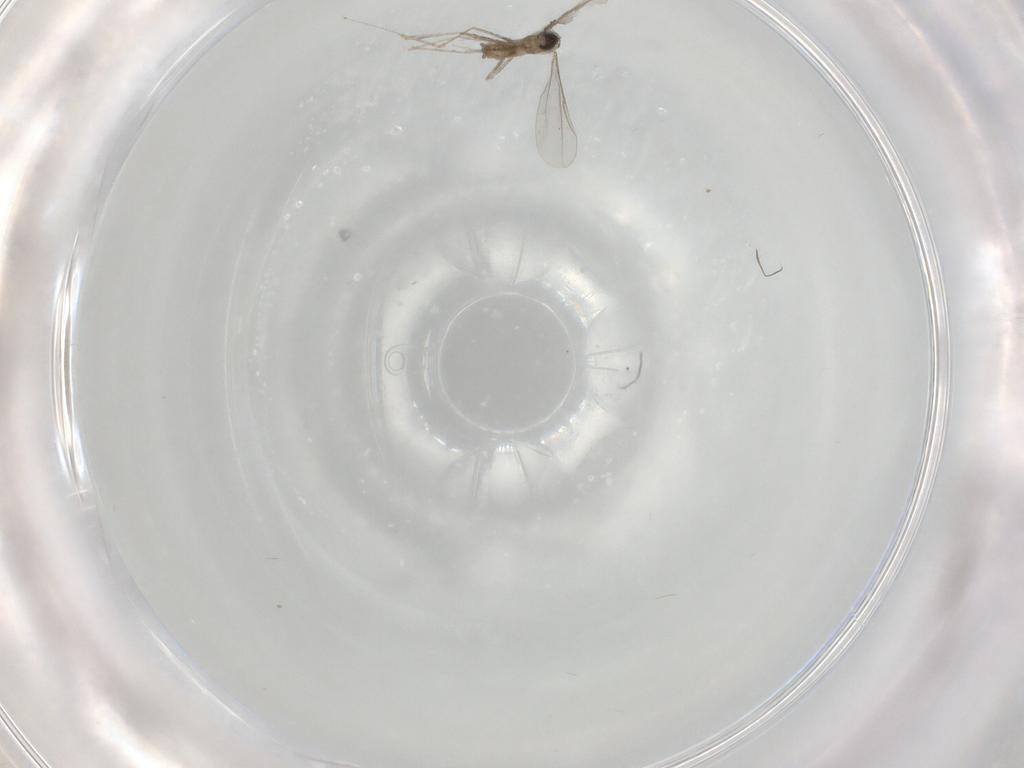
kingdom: Animalia
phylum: Arthropoda
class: Insecta
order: Diptera
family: Cecidomyiidae
